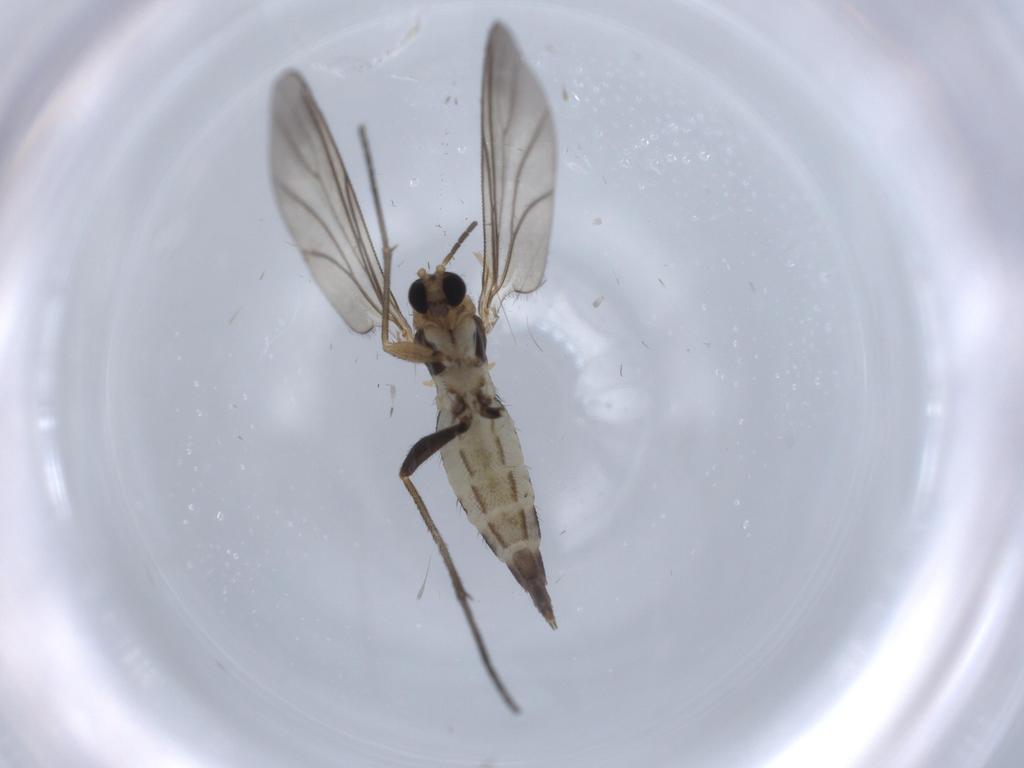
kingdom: Animalia
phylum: Arthropoda
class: Insecta
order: Diptera
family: Sciaridae
